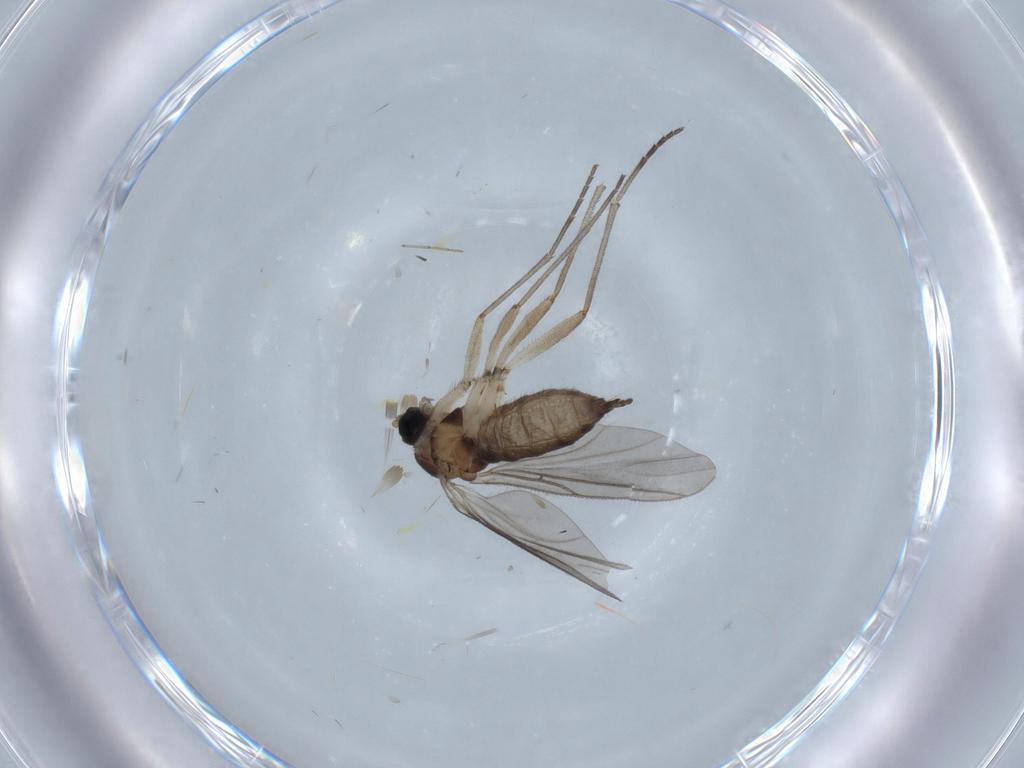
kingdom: Animalia
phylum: Arthropoda
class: Insecta
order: Diptera
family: Sciaridae
